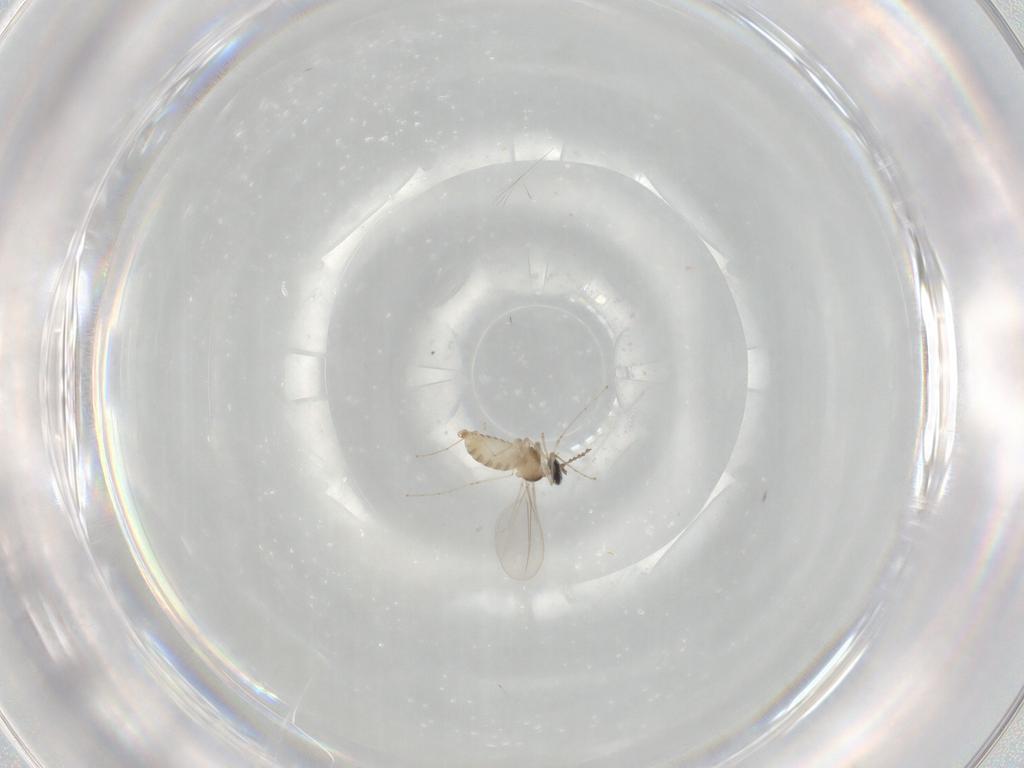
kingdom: Animalia
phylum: Arthropoda
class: Insecta
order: Diptera
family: Cecidomyiidae
